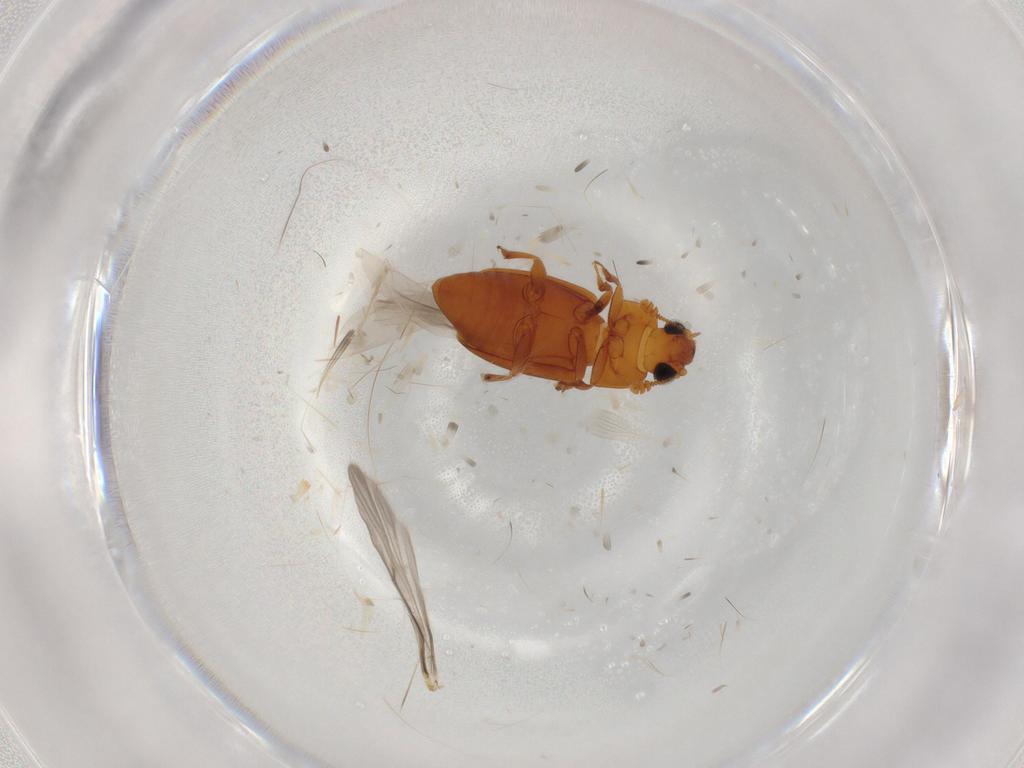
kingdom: Animalia
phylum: Arthropoda
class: Insecta
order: Coleoptera
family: Nitidulidae
